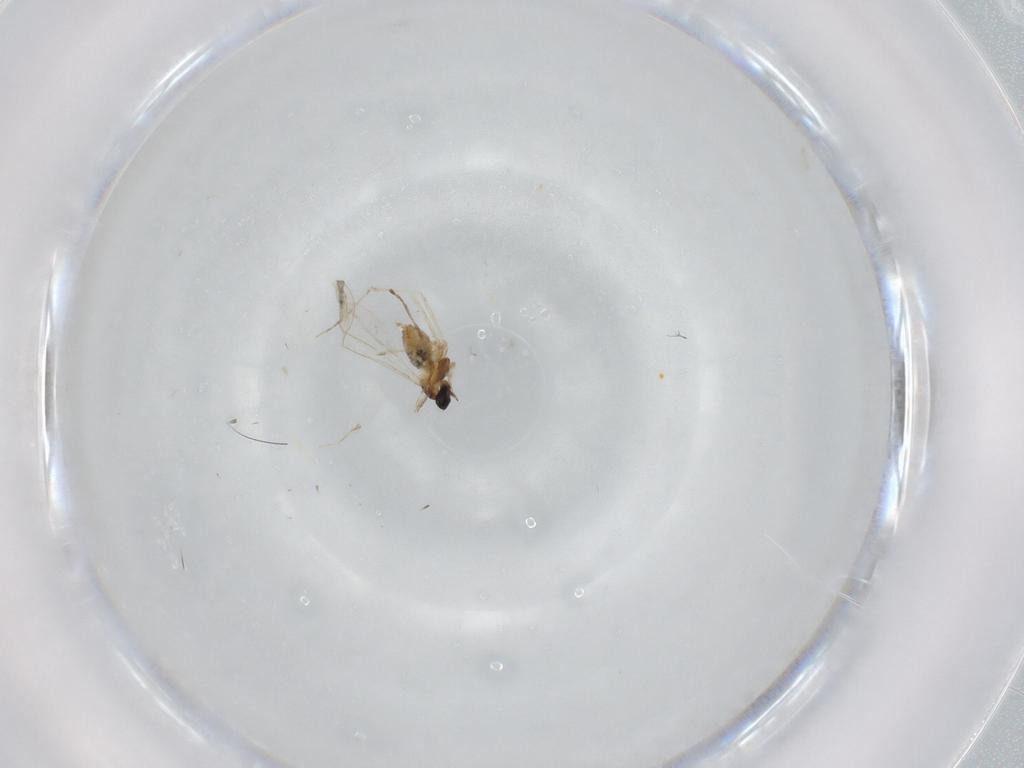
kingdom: Animalia
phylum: Arthropoda
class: Insecta
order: Diptera
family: Cecidomyiidae
